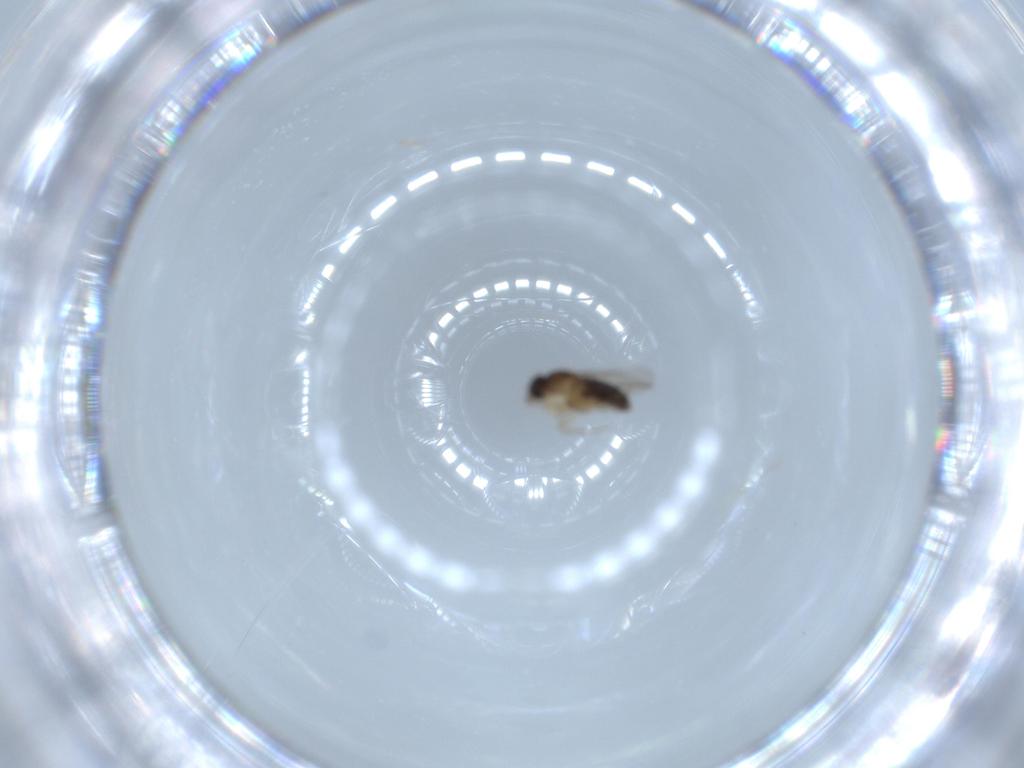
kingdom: Animalia
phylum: Arthropoda
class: Insecta
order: Diptera
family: Phoridae
